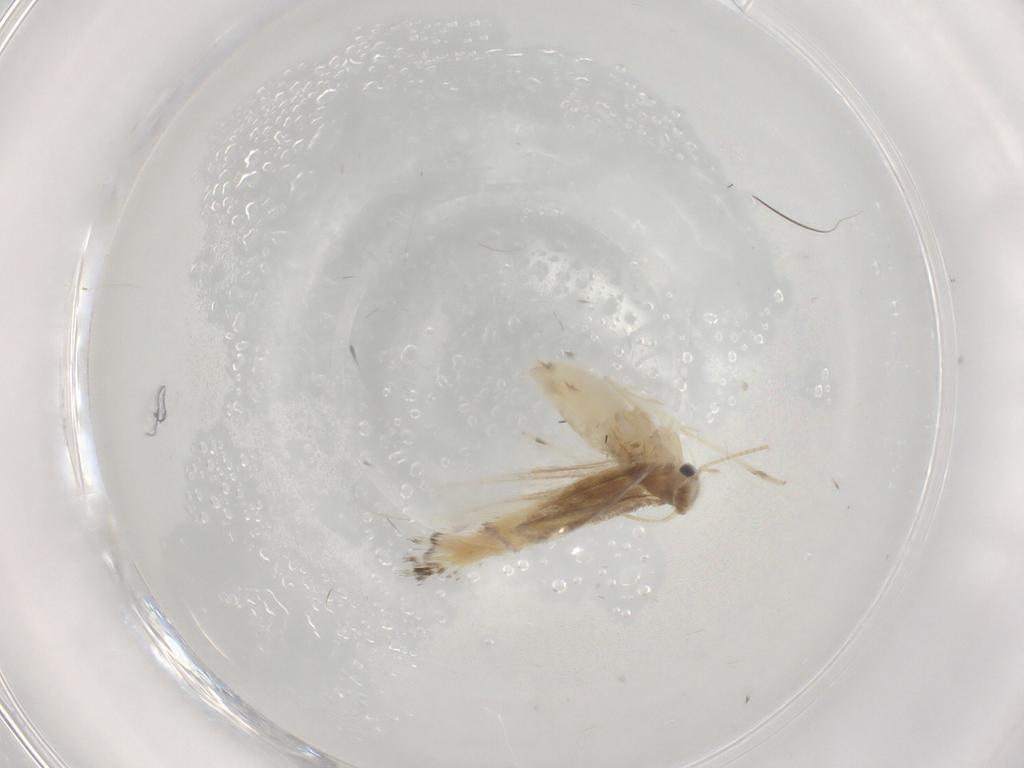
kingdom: Animalia
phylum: Arthropoda
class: Insecta
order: Lepidoptera
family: Gracillariidae
